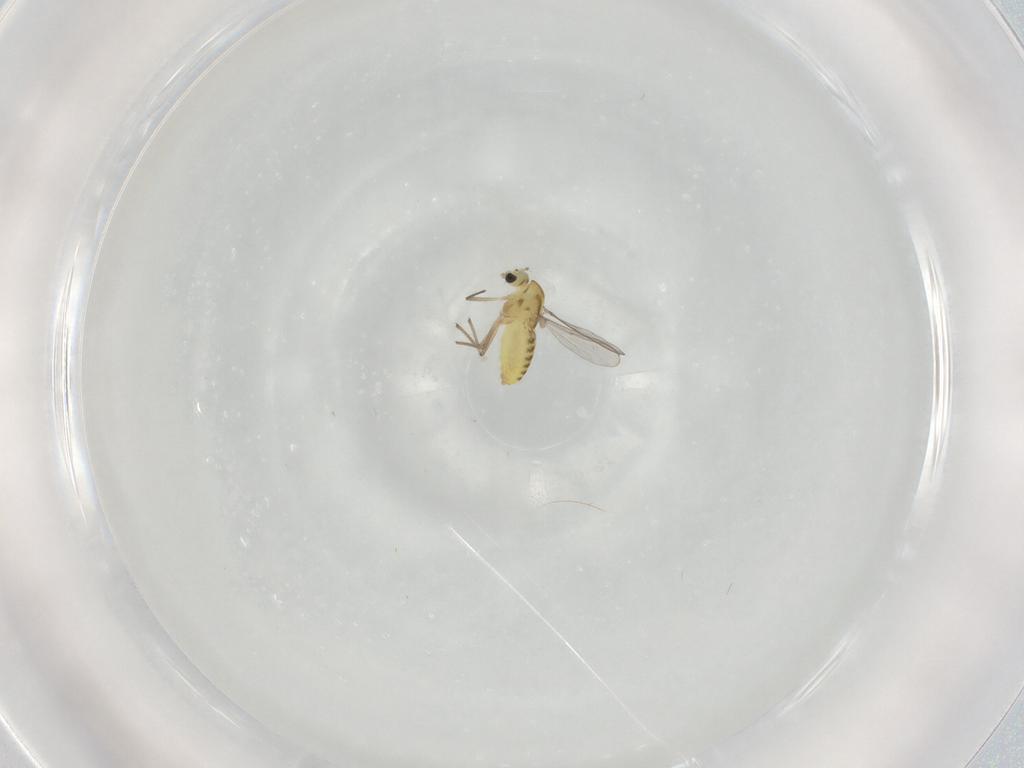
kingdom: Animalia
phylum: Arthropoda
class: Insecta
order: Diptera
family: Chironomidae
